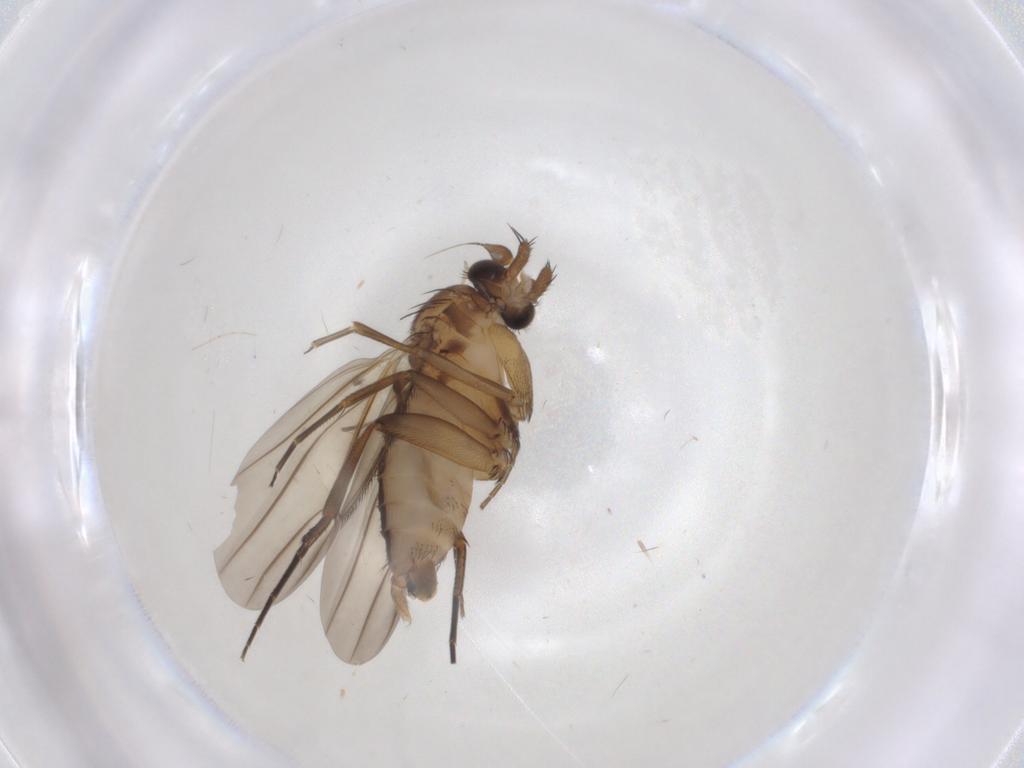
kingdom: Animalia
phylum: Arthropoda
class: Insecta
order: Diptera
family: Phoridae
